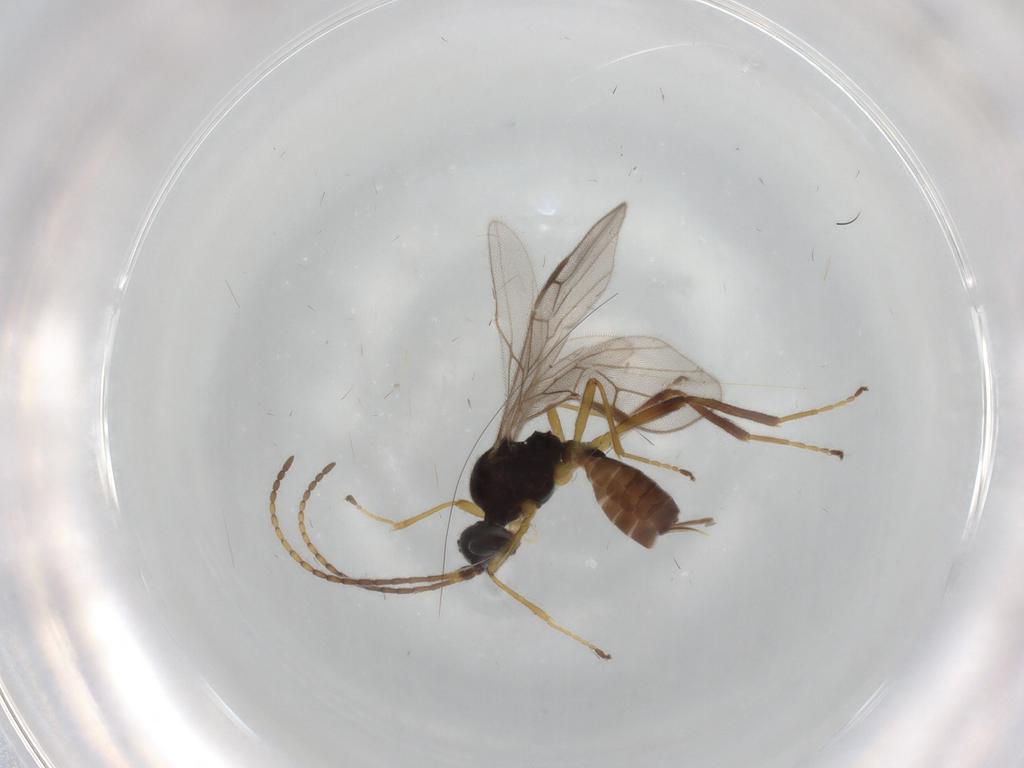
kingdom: Animalia
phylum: Arthropoda
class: Insecta
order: Hymenoptera
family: Braconidae
